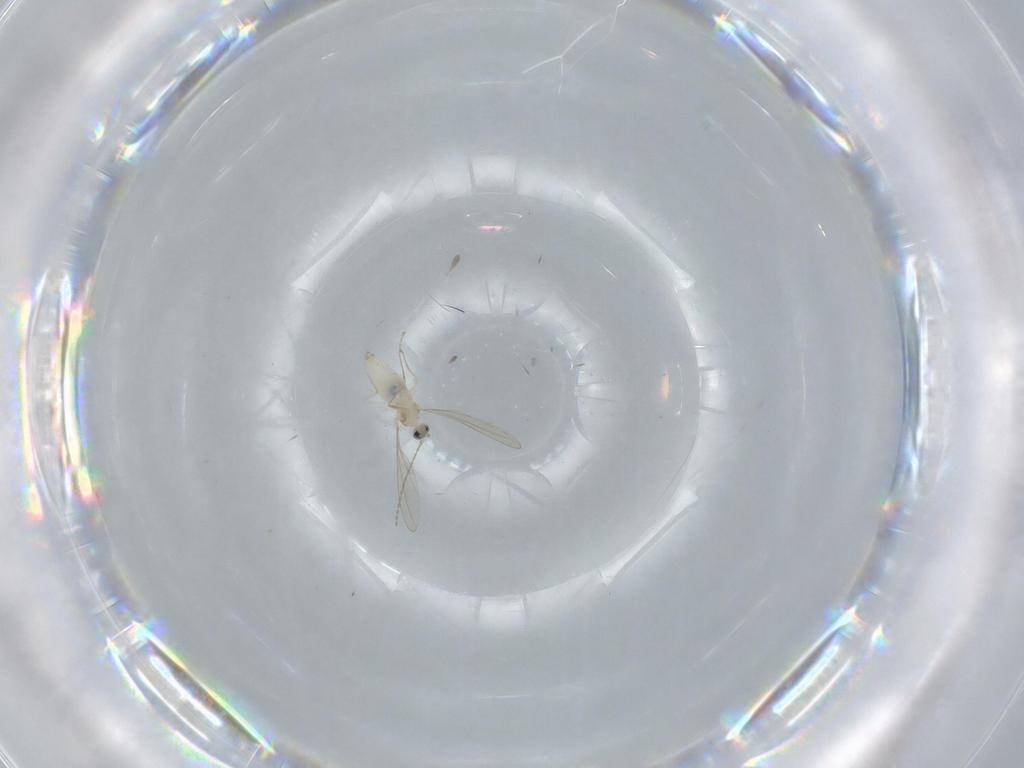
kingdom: Animalia
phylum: Arthropoda
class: Insecta
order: Diptera
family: Cecidomyiidae
